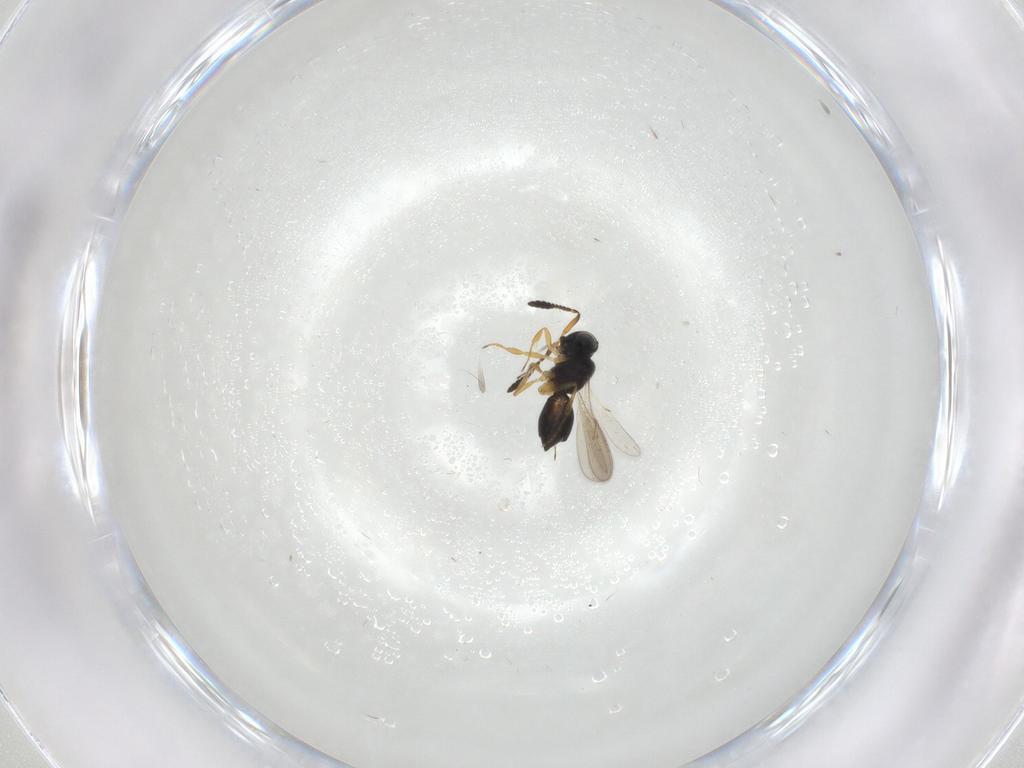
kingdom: Animalia
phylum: Arthropoda
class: Insecta
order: Hymenoptera
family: Scelionidae
